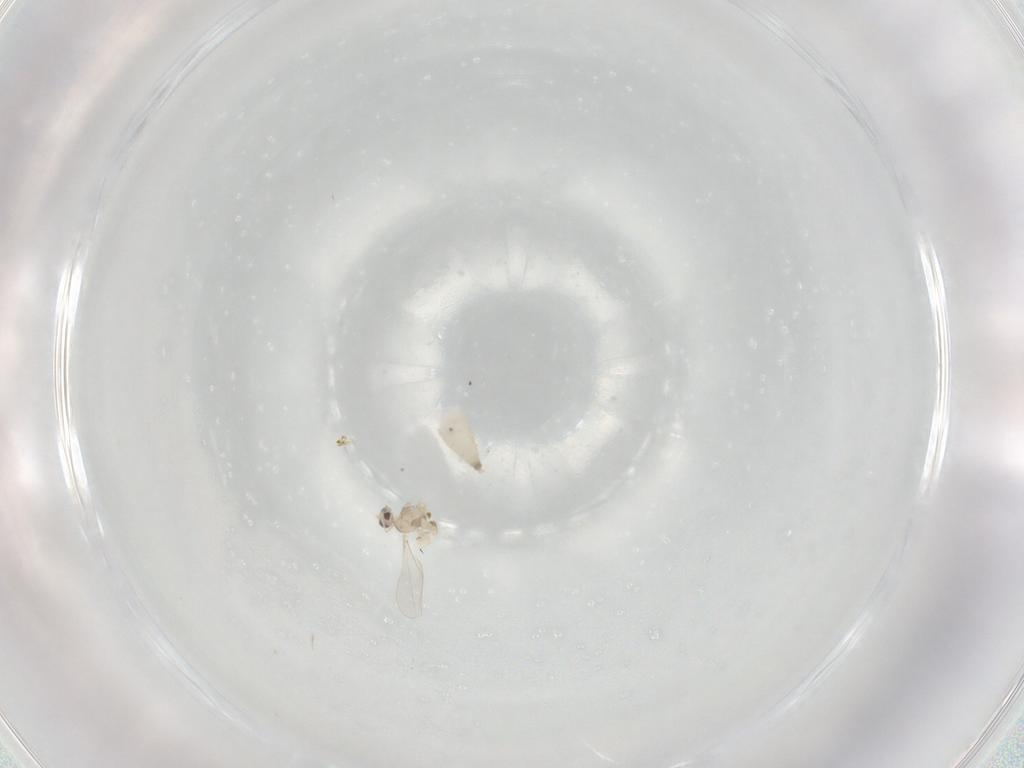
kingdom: Animalia
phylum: Arthropoda
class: Insecta
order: Diptera
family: Cecidomyiidae
